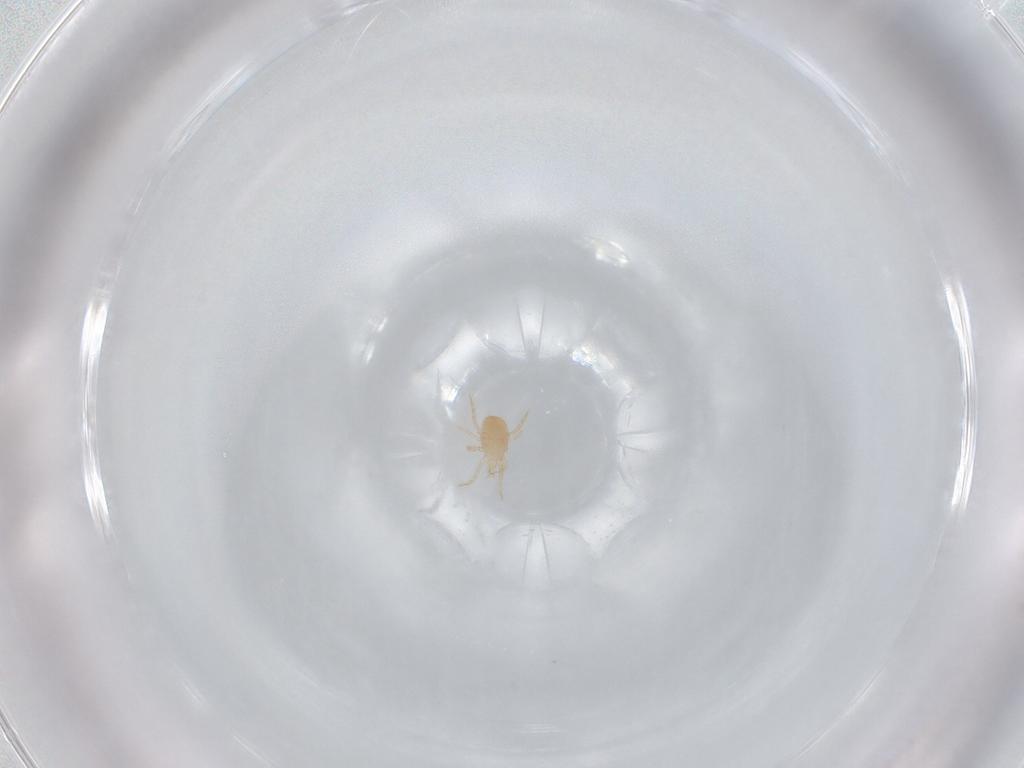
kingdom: Animalia
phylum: Arthropoda
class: Arachnida
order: Mesostigmata
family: Blattisociidae
